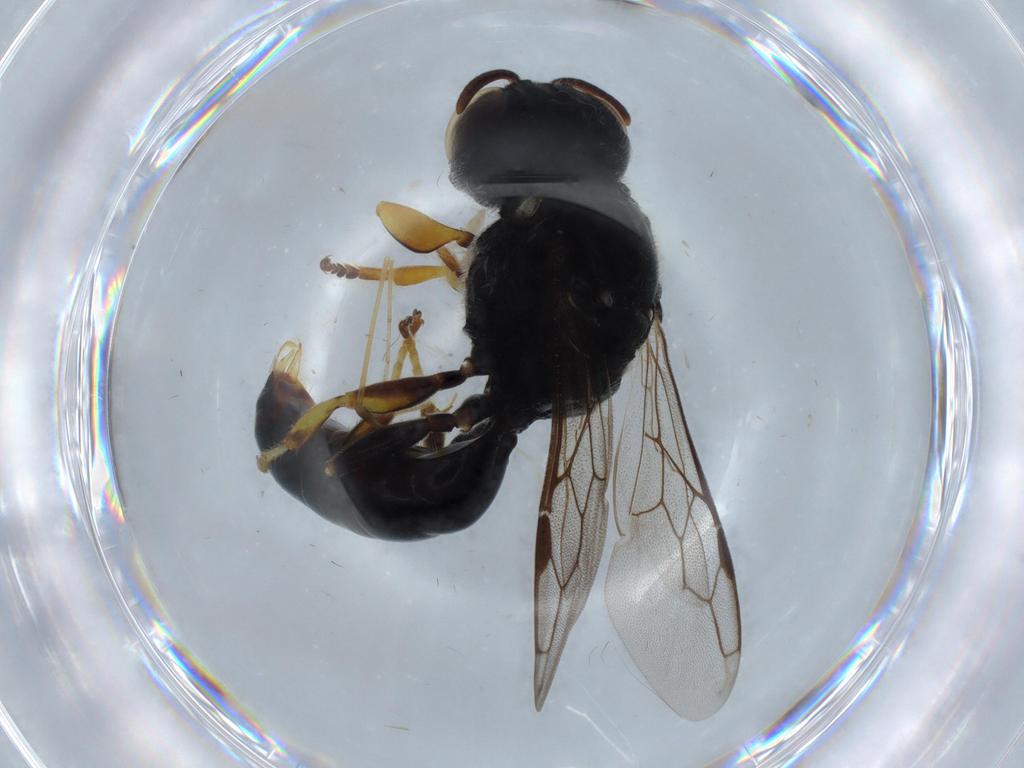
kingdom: Animalia
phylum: Arthropoda
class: Insecta
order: Hymenoptera
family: Crabronidae
